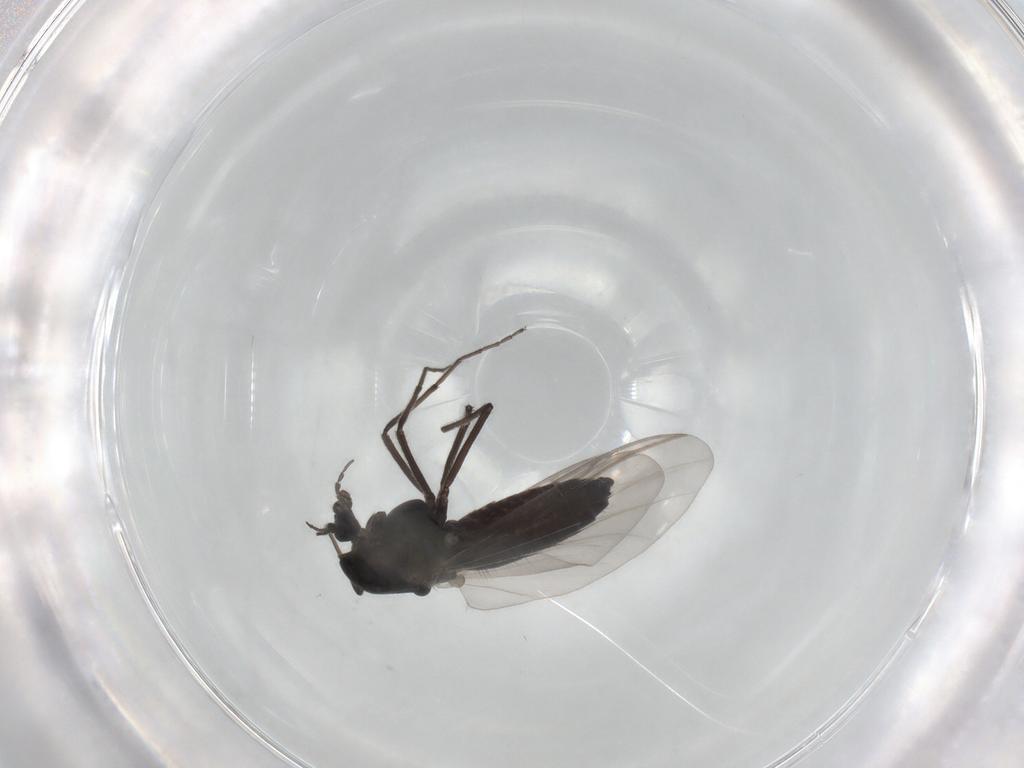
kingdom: Animalia
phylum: Arthropoda
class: Insecta
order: Diptera
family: Chironomidae
